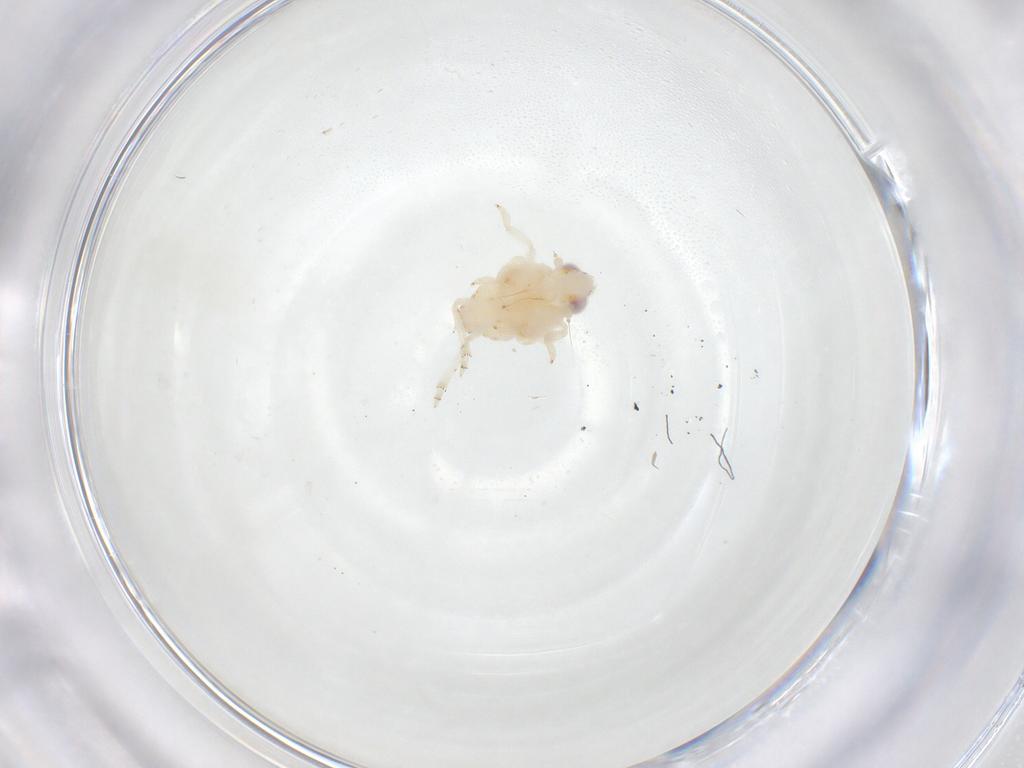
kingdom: Animalia
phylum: Arthropoda
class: Insecta
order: Hemiptera
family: Nogodinidae
